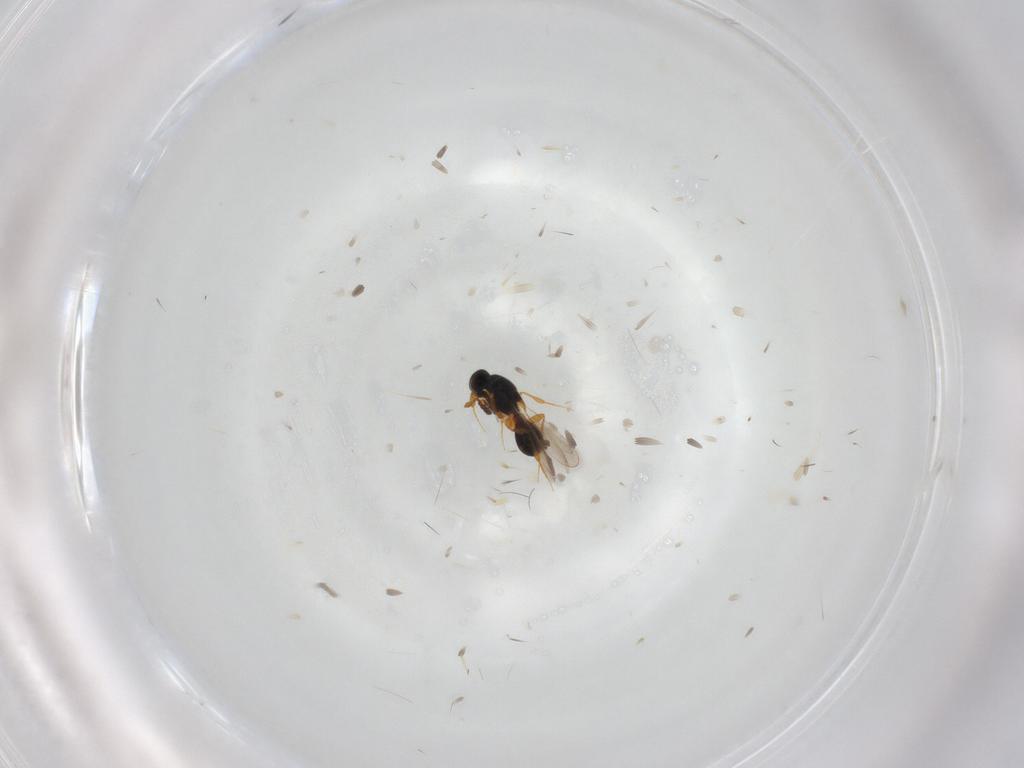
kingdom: Animalia
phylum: Arthropoda
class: Insecta
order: Hymenoptera
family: Platygastridae
